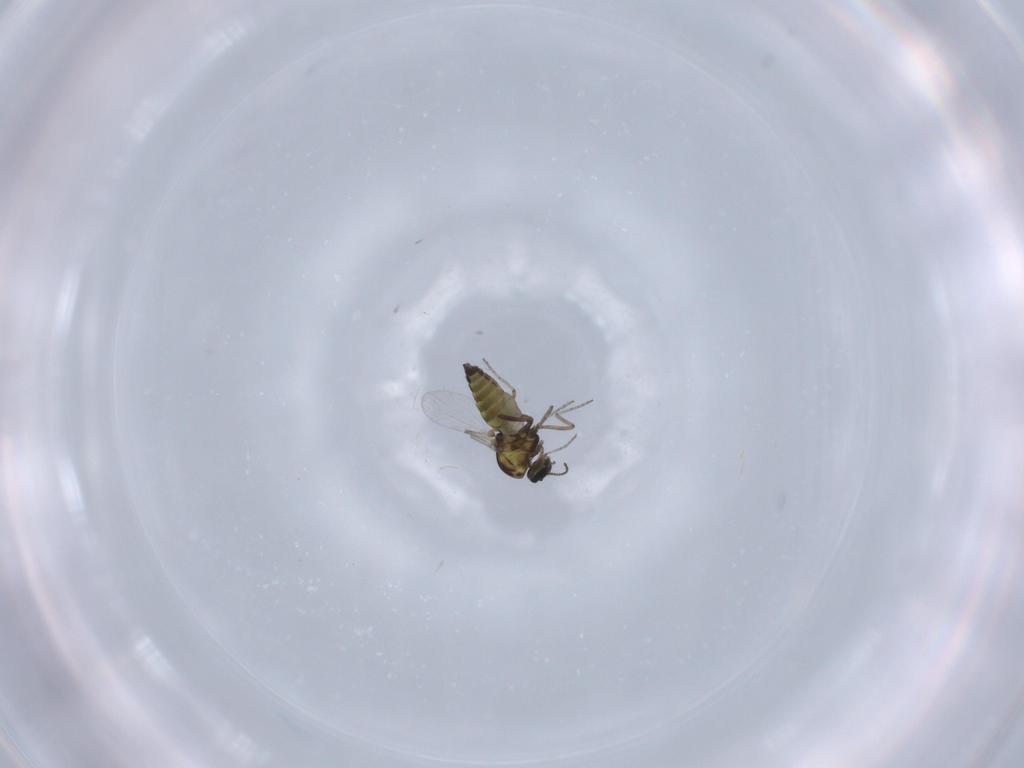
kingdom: Animalia
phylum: Arthropoda
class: Insecta
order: Diptera
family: Ceratopogonidae
